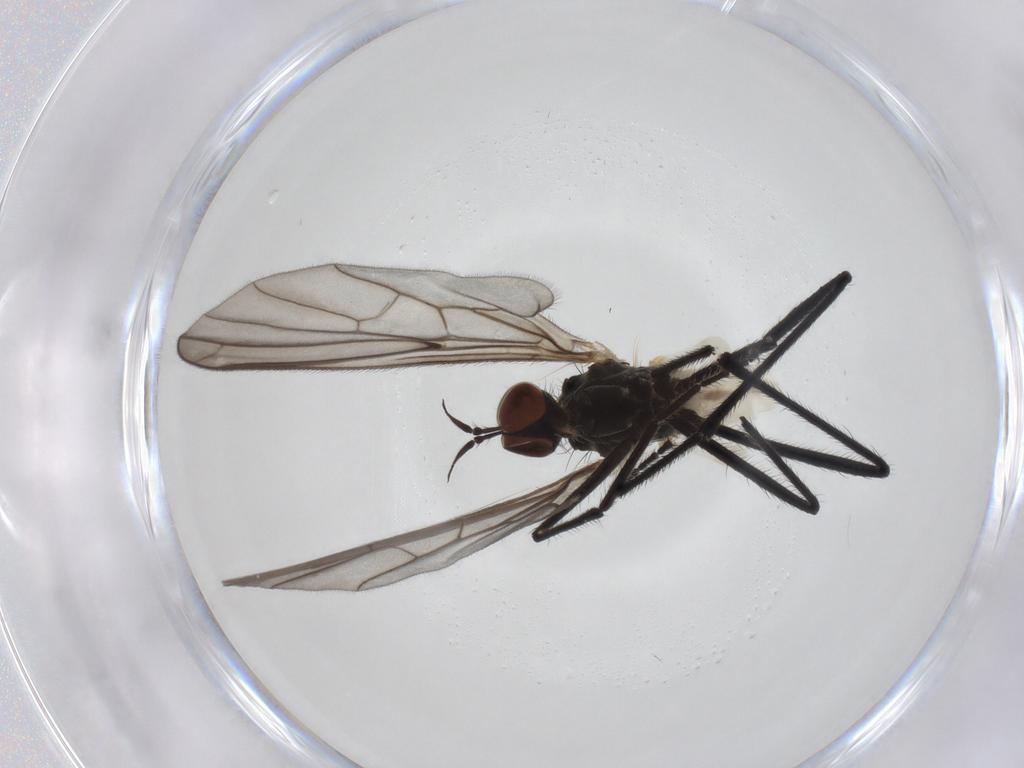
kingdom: Animalia
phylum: Arthropoda
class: Insecta
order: Diptera
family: Empididae
